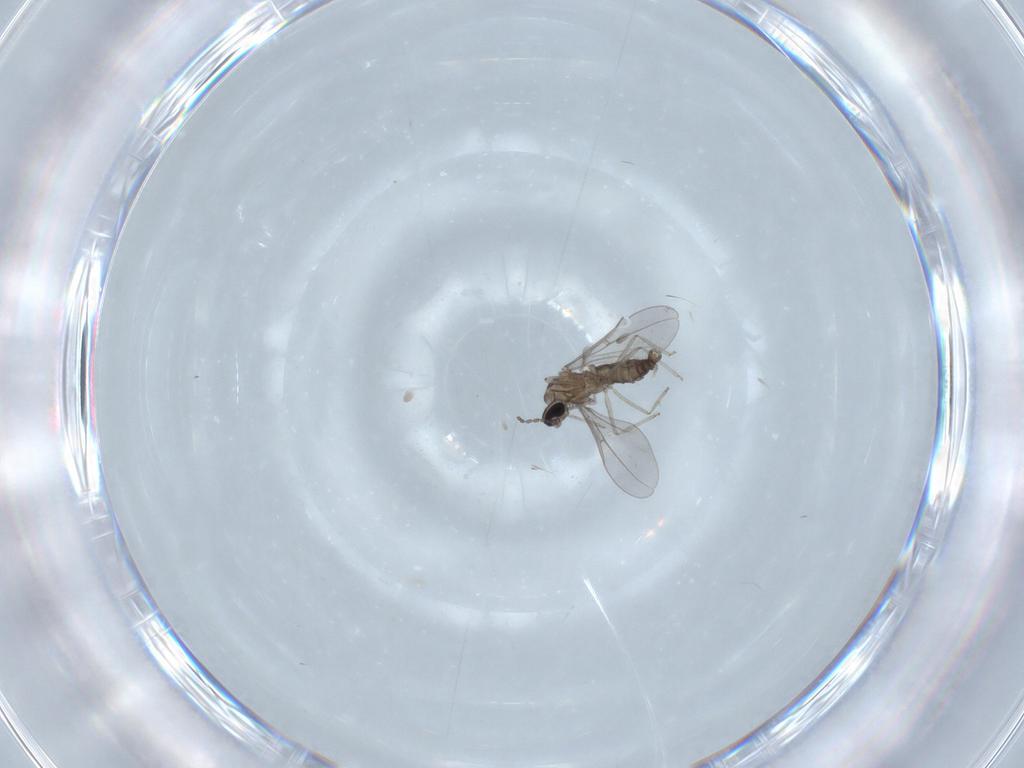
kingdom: Animalia
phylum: Arthropoda
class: Insecta
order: Diptera
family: Cecidomyiidae
